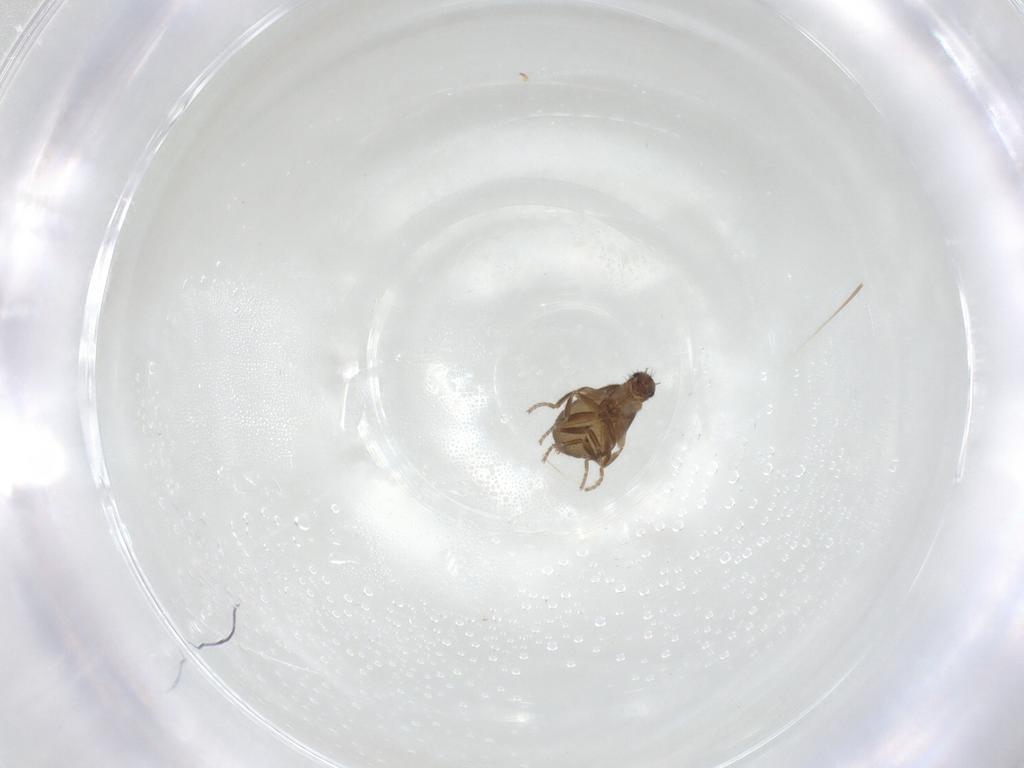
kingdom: Animalia
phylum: Arthropoda
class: Insecta
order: Diptera
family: Phoridae
